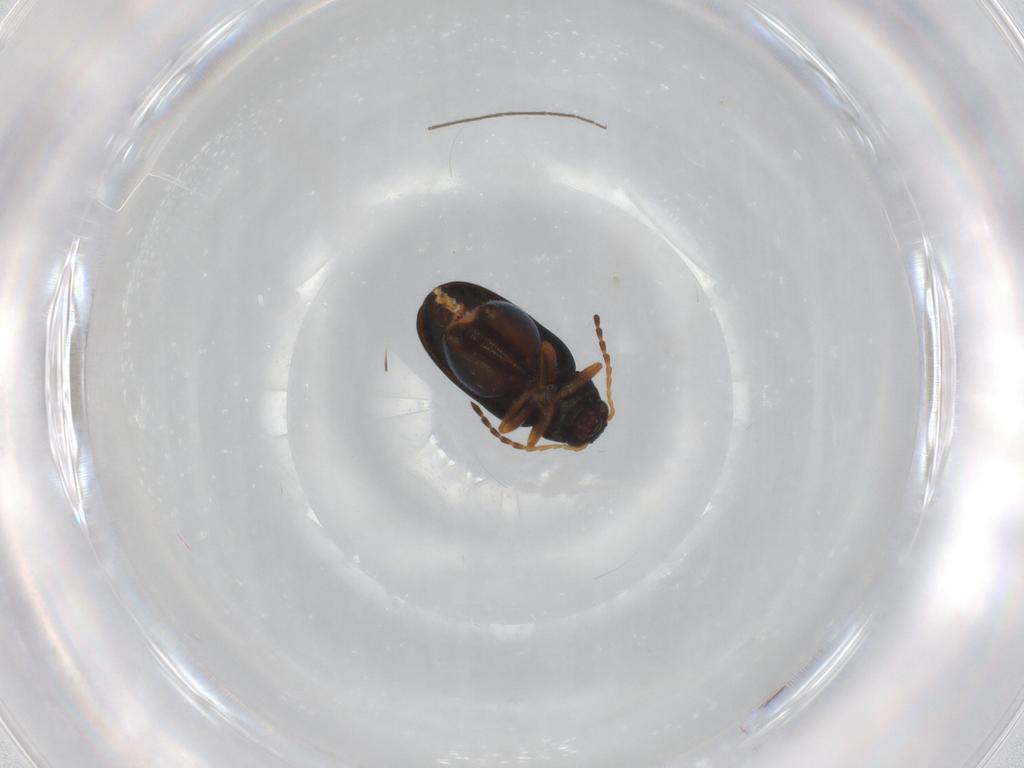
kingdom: Animalia
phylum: Arthropoda
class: Insecta
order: Coleoptera
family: Chrysomelidae
